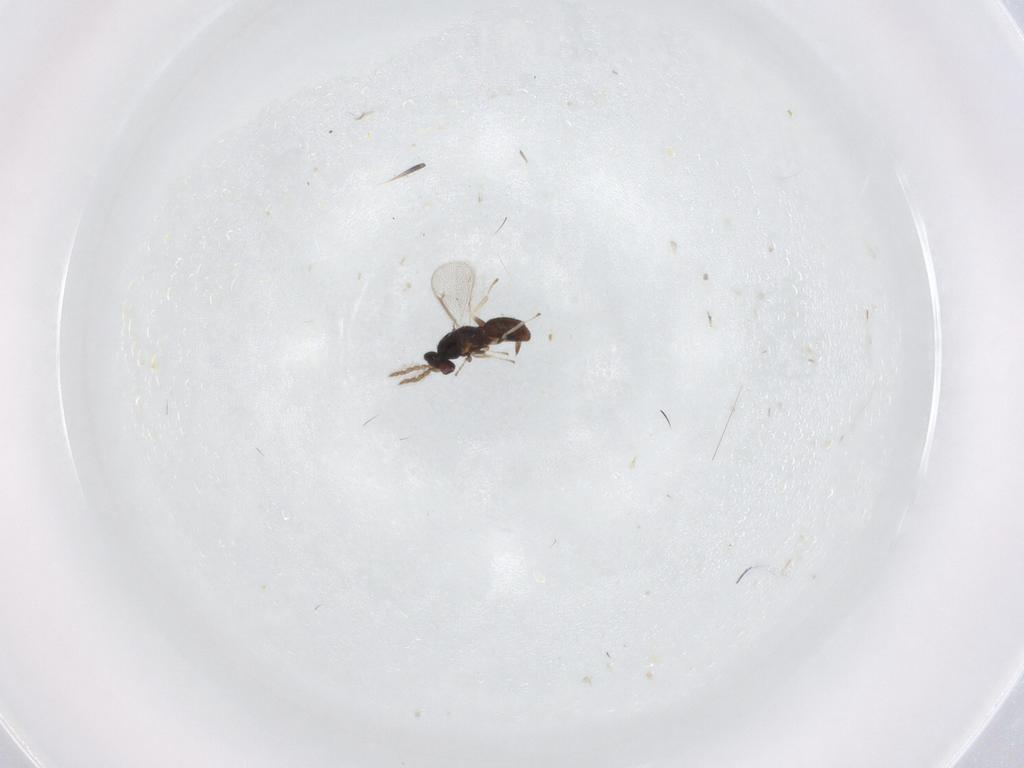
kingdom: Animalia
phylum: Arthropoda
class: Insecta
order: Hymenoptera
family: Eulophidae
